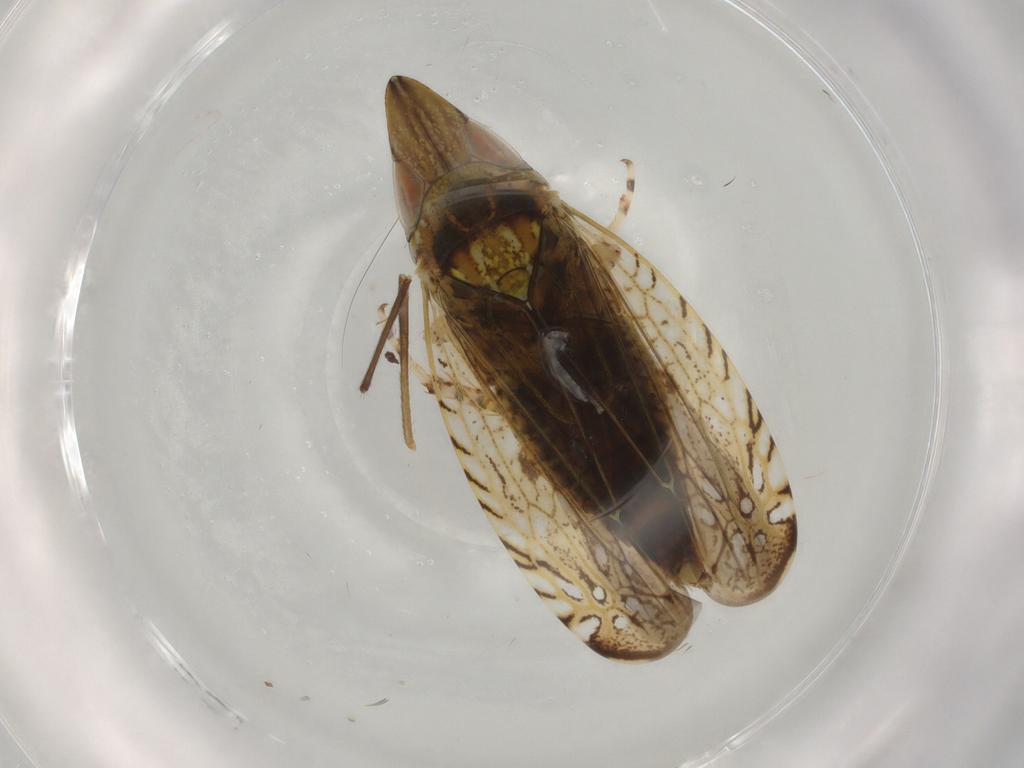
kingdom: Animalia
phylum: Arthropoda
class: Insecta
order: Hemiptera
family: Cicadellidae
